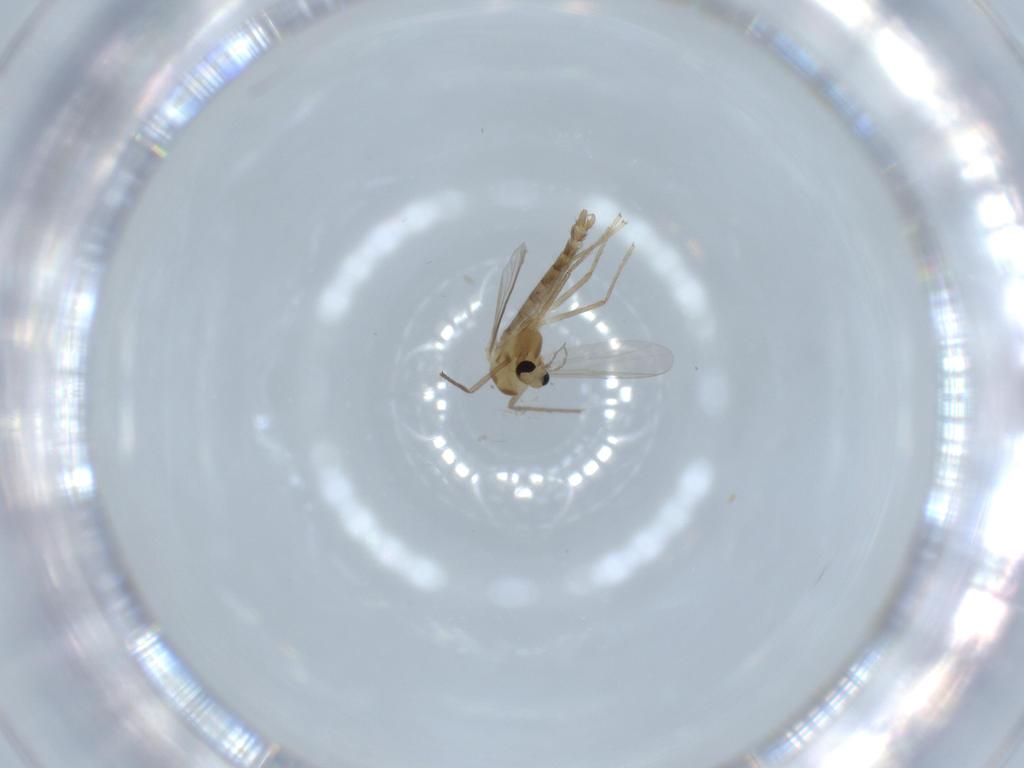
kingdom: Animalia
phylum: Arthropoda
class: Insecta
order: Diptera
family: Chironomidae
